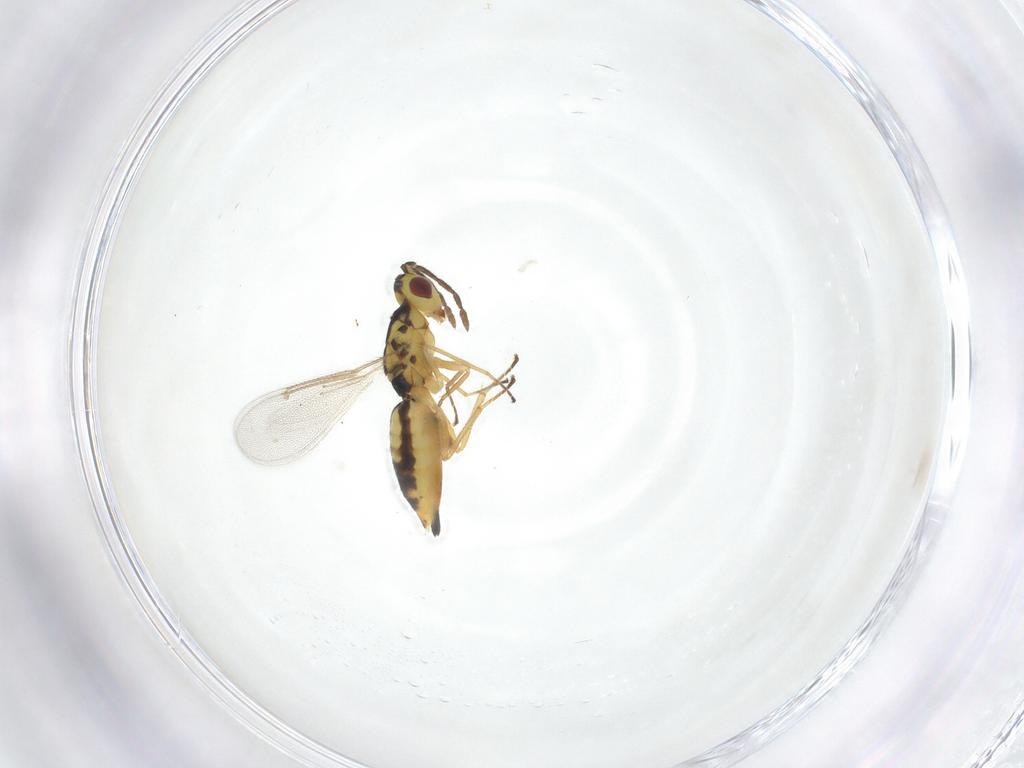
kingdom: Animalia
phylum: Arthropoda
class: Insecta
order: Hymenoptera
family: Eulophidae
